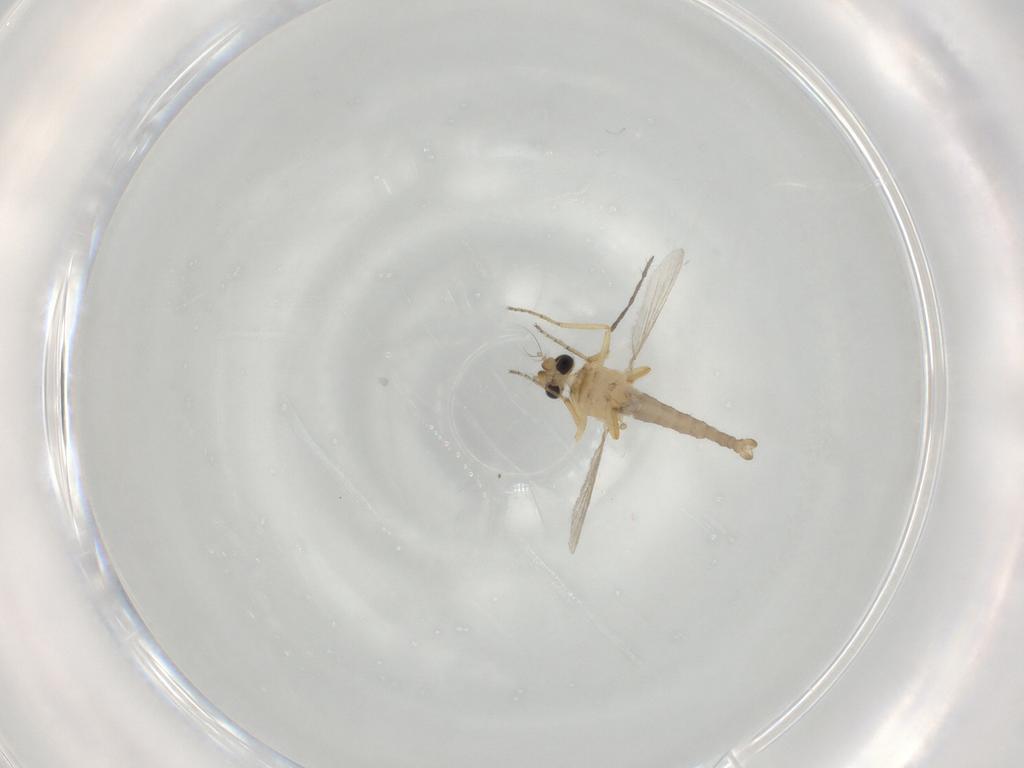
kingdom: Animalia
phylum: Arthropoda
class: Insecta
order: Diptera
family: Ceratopogonidae
